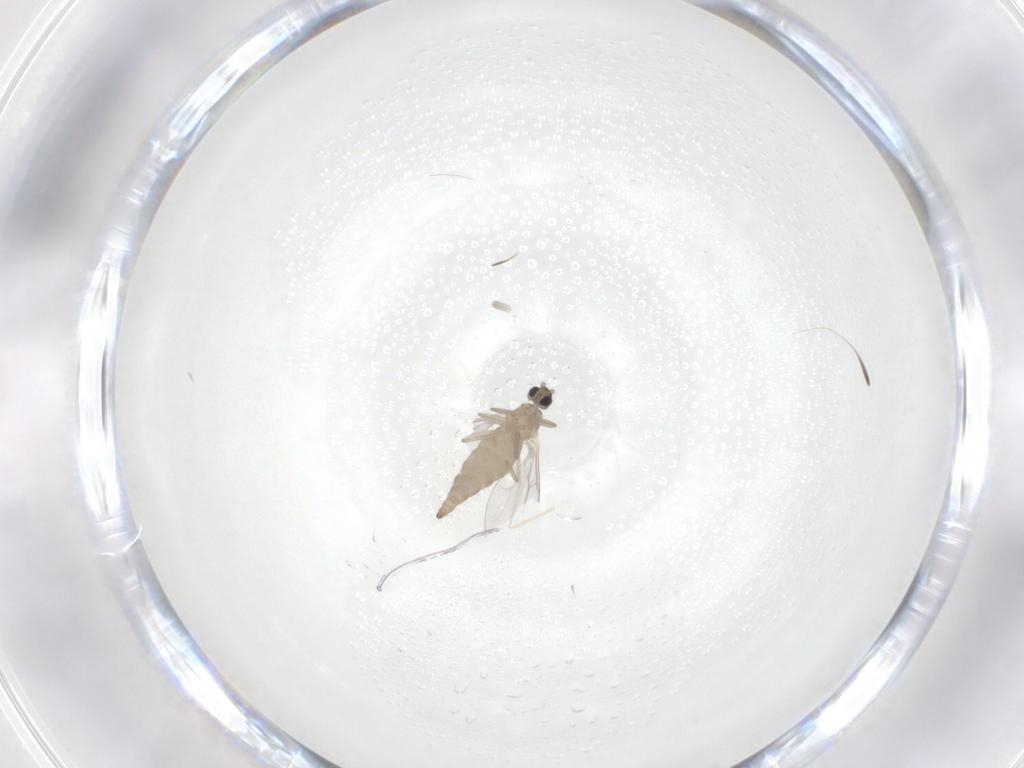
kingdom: Animalia
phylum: Arthropoda
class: Insecta
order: Diptera
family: Cecidomyiidae
